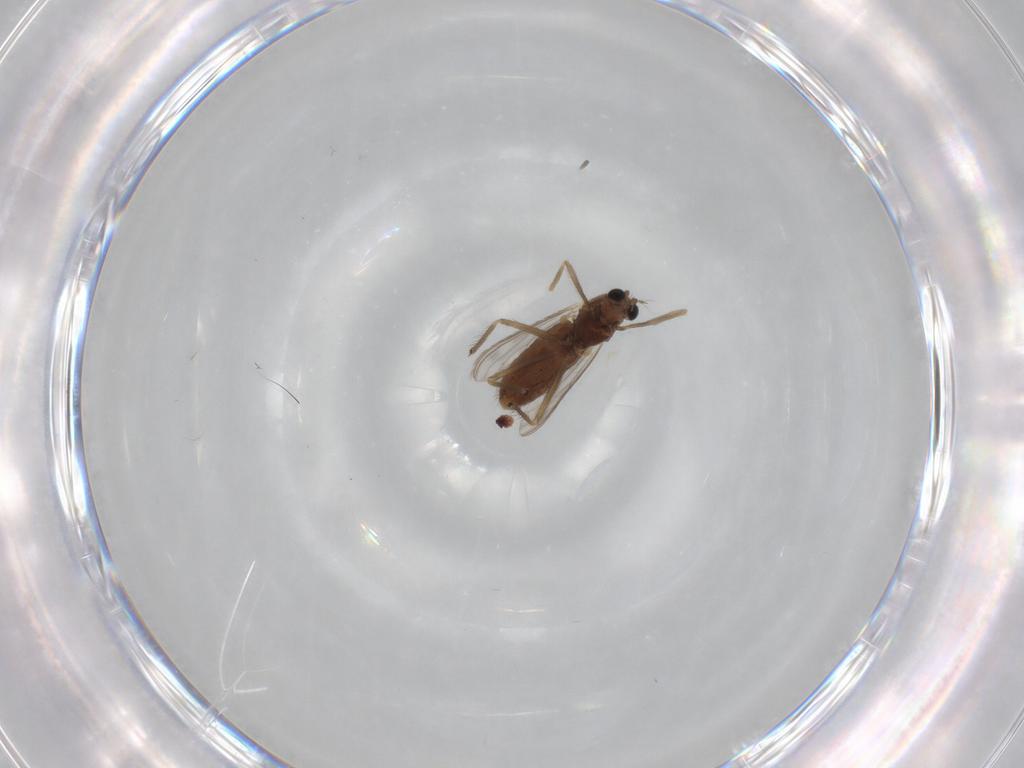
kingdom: Animalia
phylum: Arthropoda
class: Insecta
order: Diptera
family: Chironomidae
